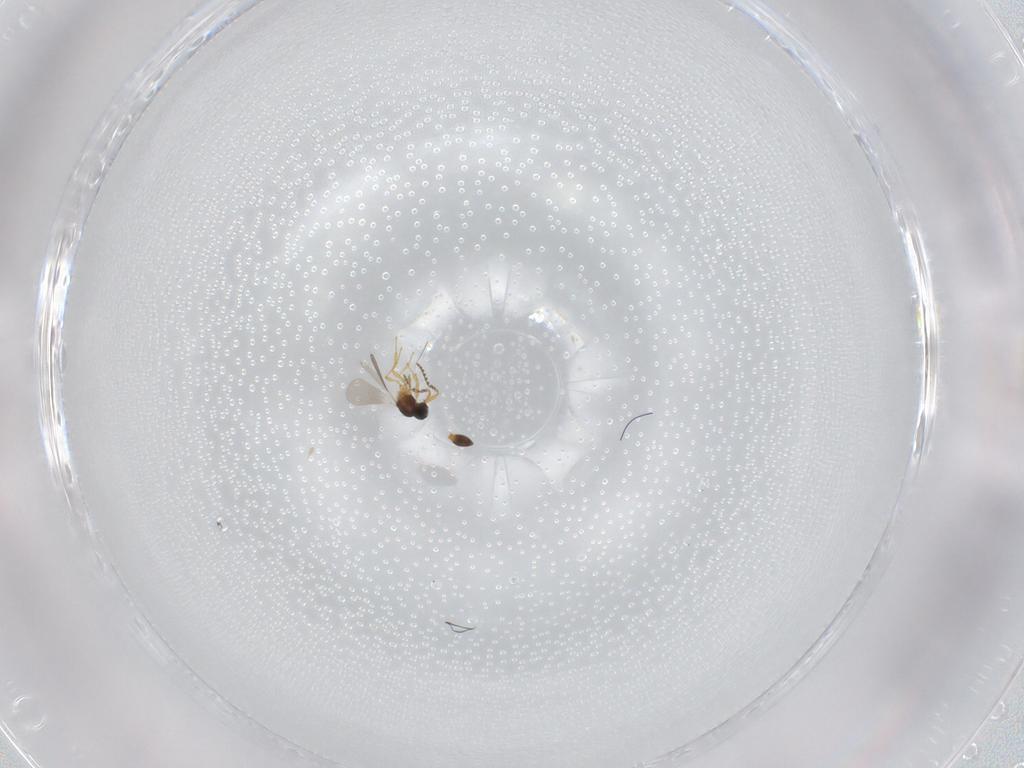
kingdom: Animalia
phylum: Arthropoda
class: Insecta
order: Hymenoptera
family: Platygastridae
